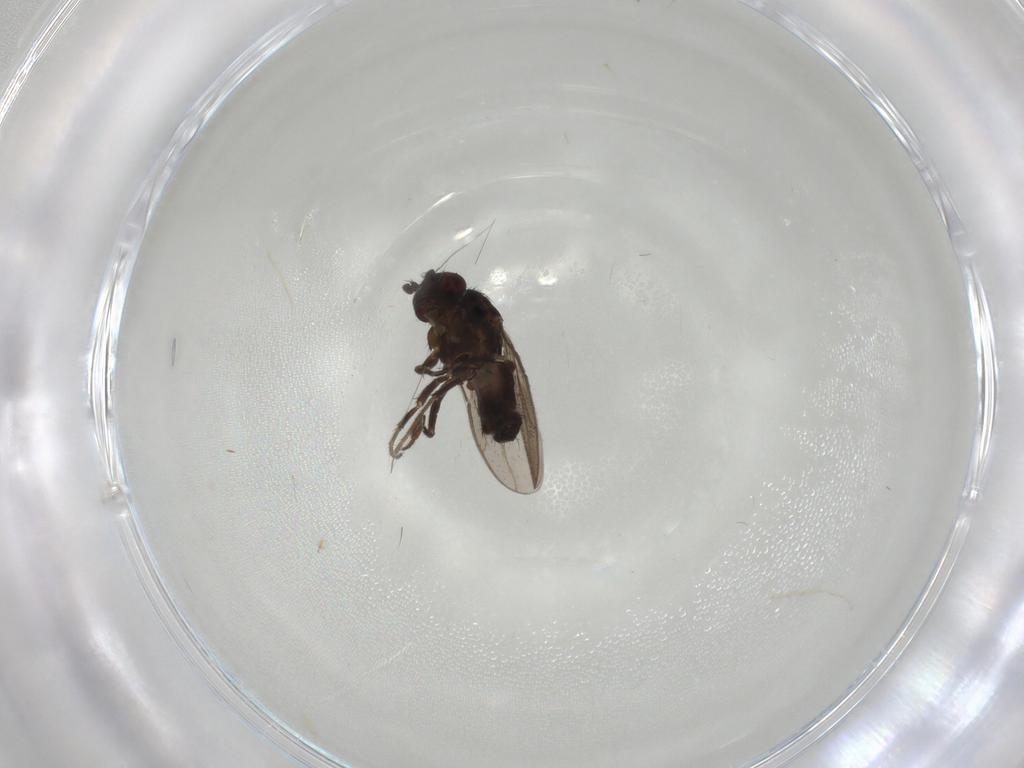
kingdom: Animalia
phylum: Arthropoda
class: Insecta
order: Diptera
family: Sphaeroceridae
